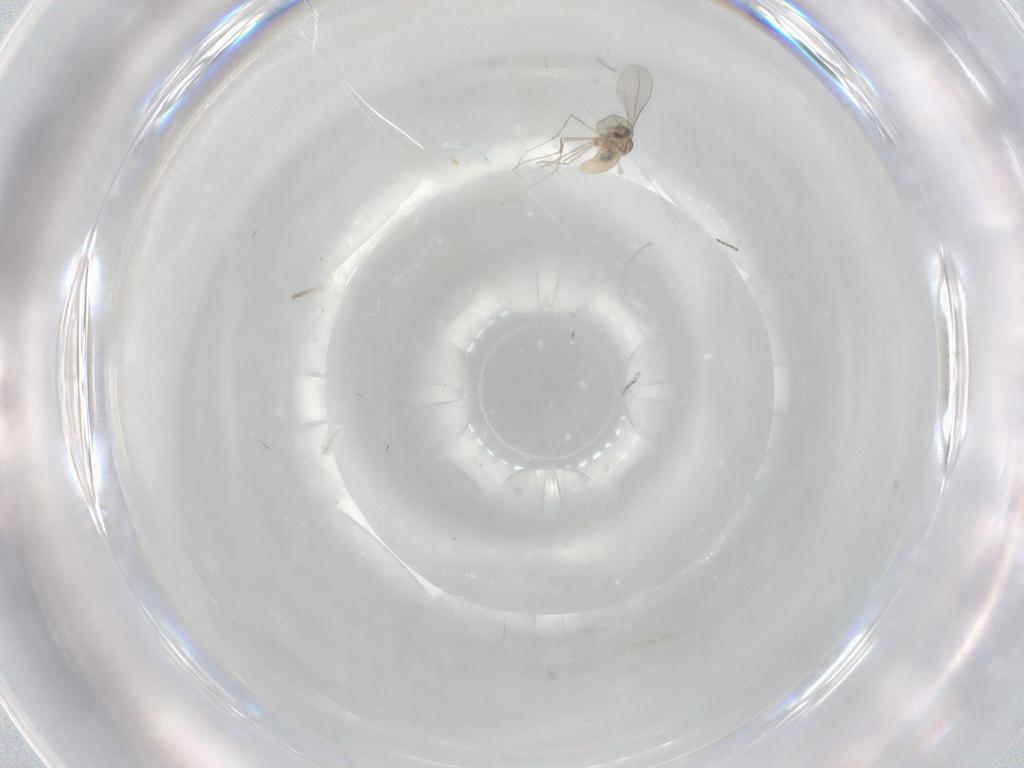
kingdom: Animalia
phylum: Arthropoda
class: Insecta
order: Diptera
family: Cecidomyiidae
